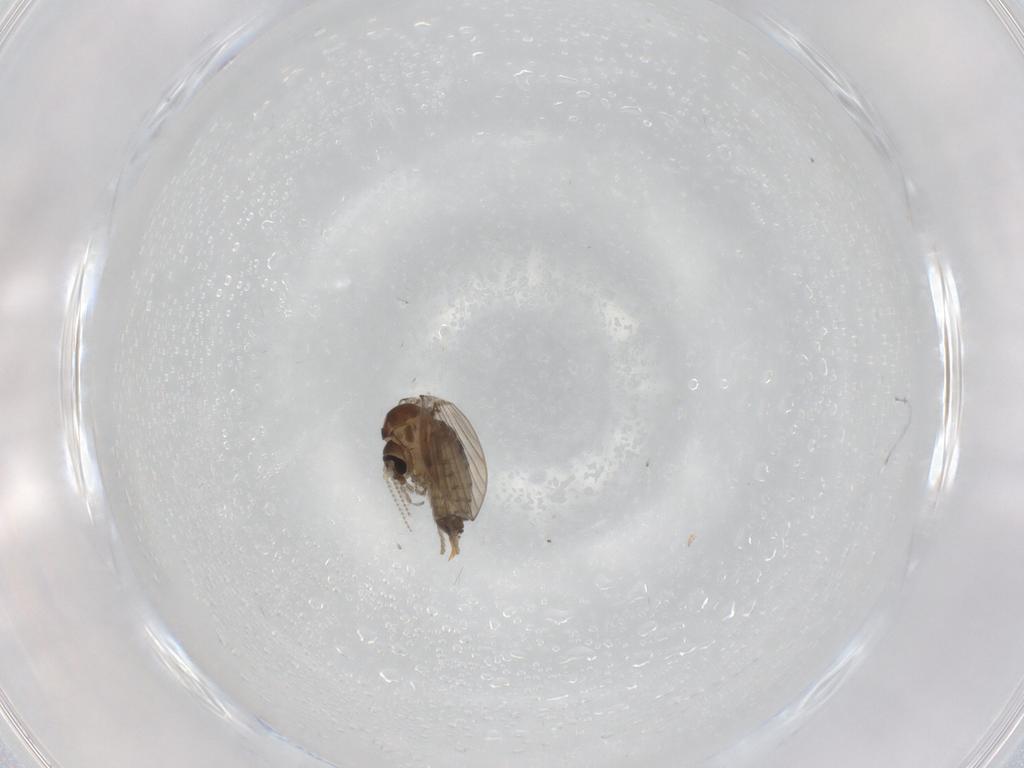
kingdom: Animalia
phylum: Arthropoda
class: Insecta
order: Diptera
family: Psychodidae
